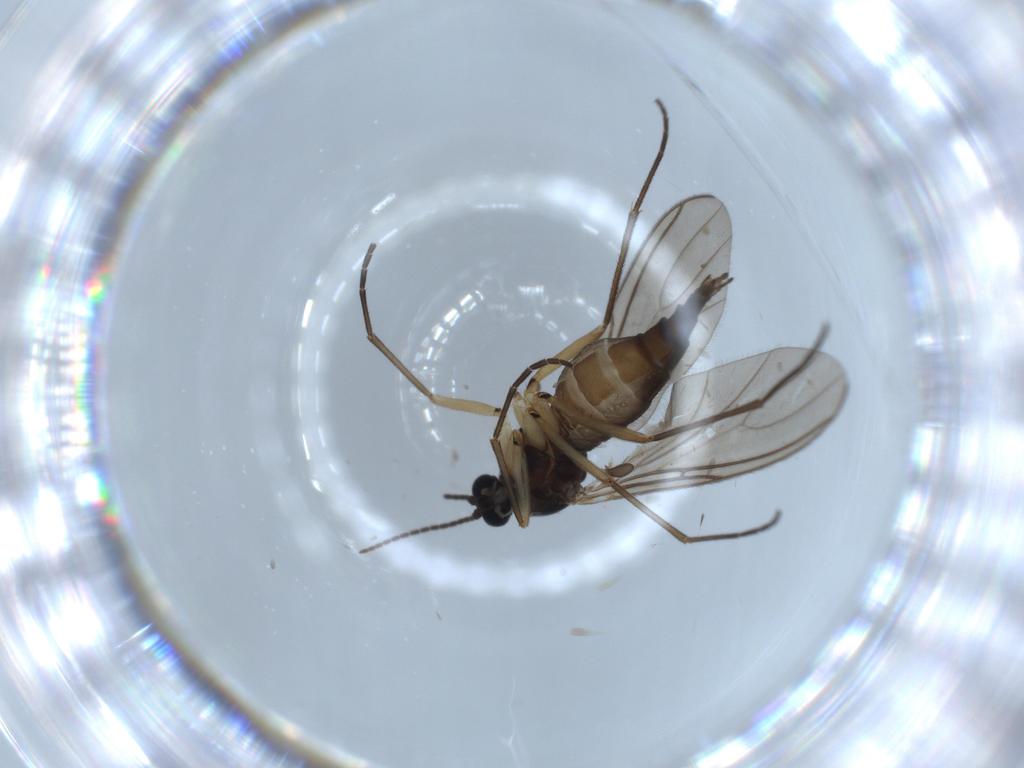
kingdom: Animalia
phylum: Arthropoda
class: Insecta
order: Diptera
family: Sciaridae
